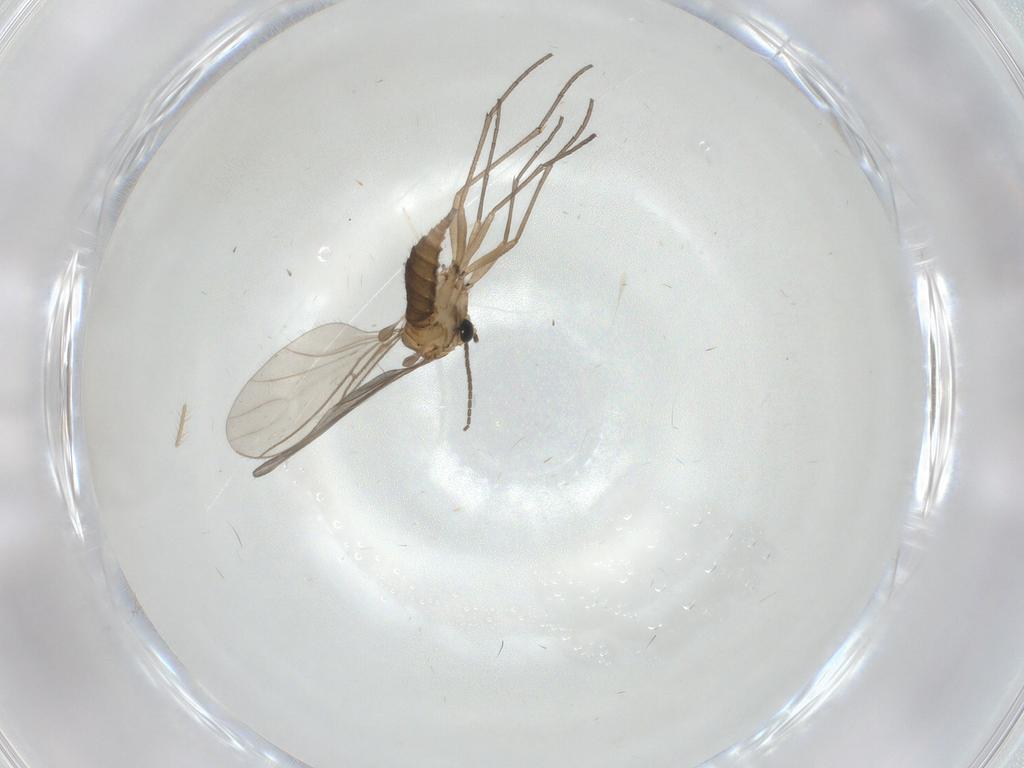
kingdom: Animalia
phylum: Arthropoda
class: Insecta
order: Diptera
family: Sciaridae
